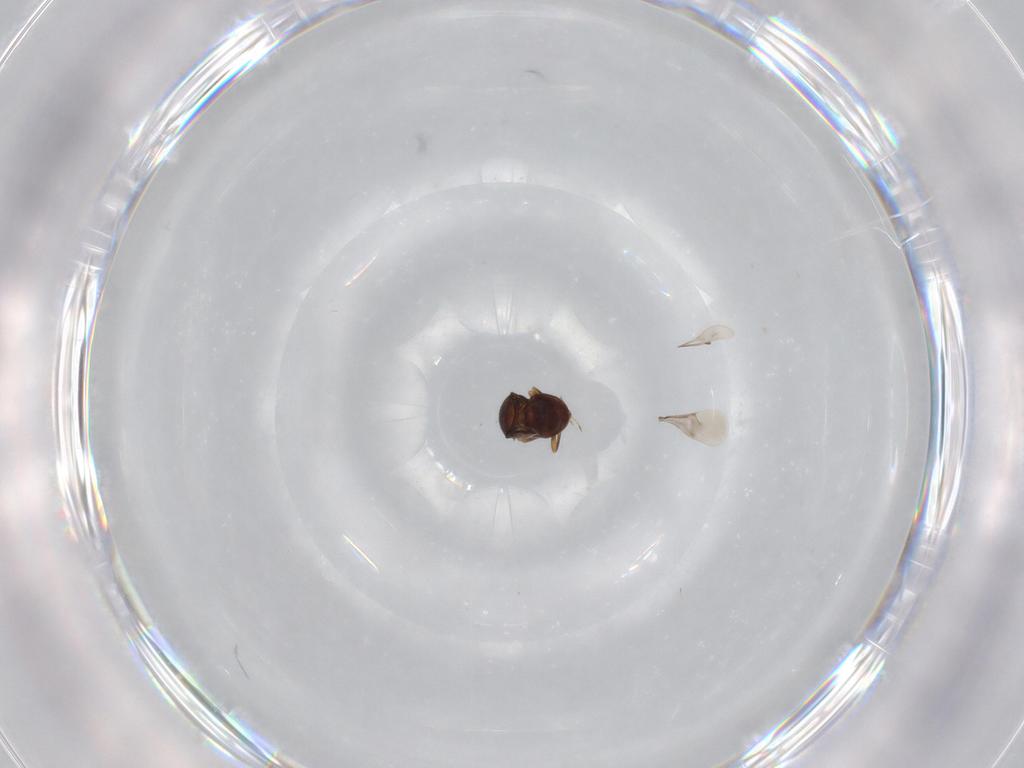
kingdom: Animalia
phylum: Arthropoda
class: Insecta
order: Hymenoptera
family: Scelionidae
